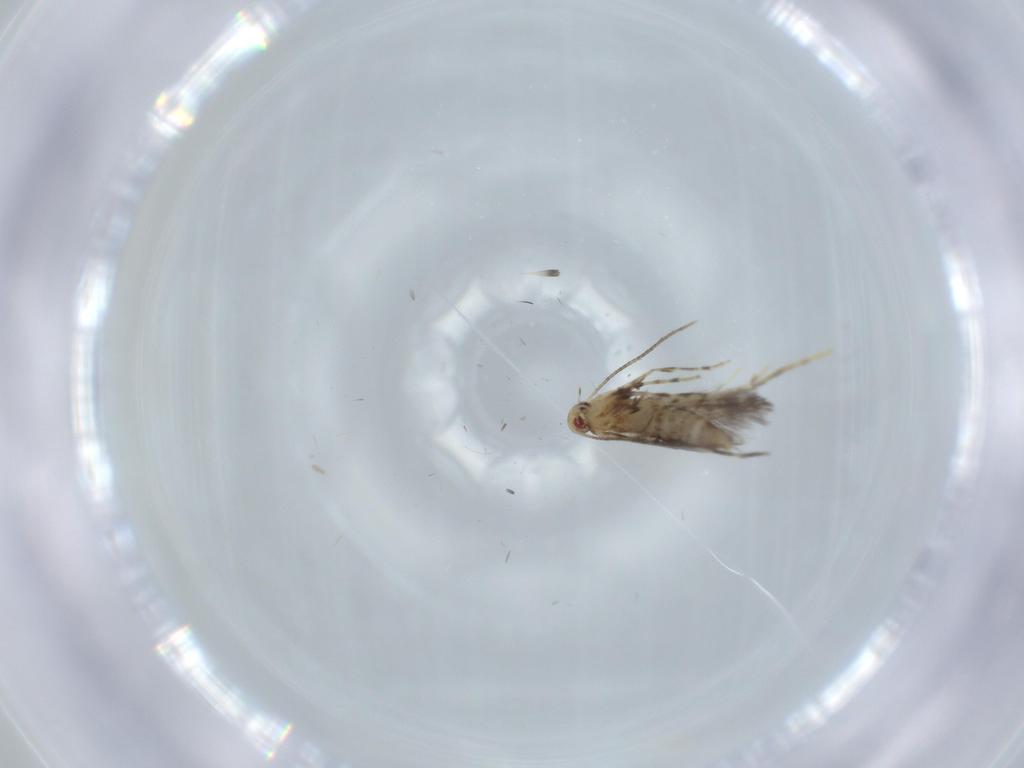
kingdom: Animalia
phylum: Arthropoda
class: Insecta
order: Lepidoptera
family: Gracillariidae
